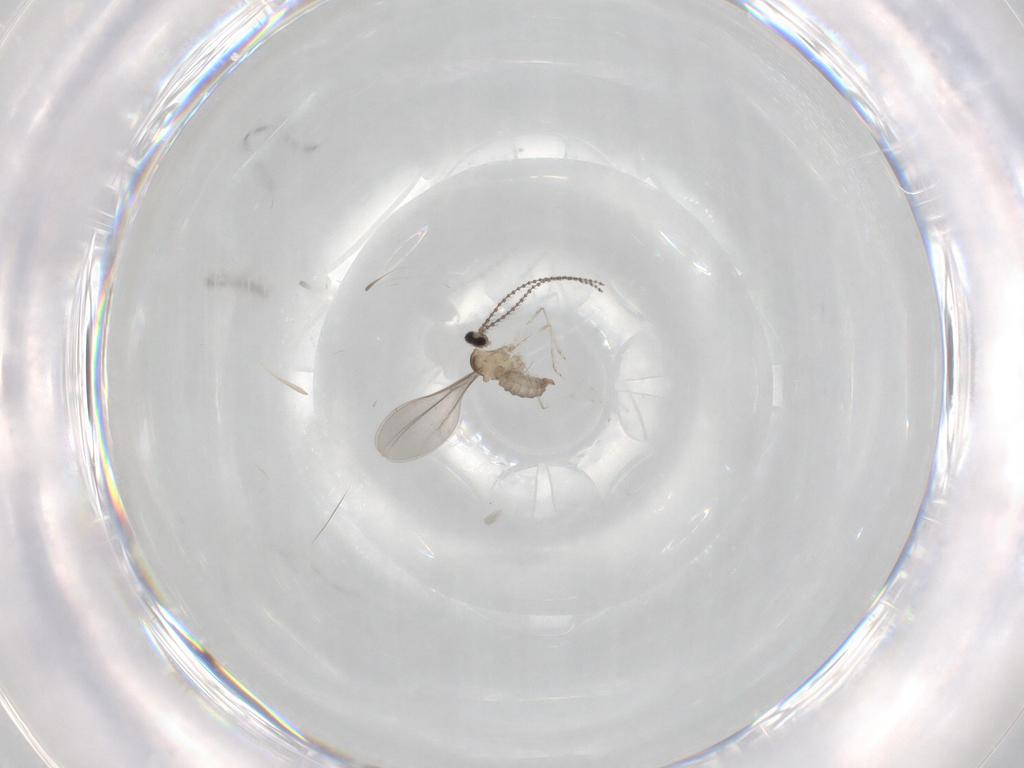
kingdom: Animalia
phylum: Arthropoda
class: Insecta
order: Diptera
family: Cecidomyiidae
